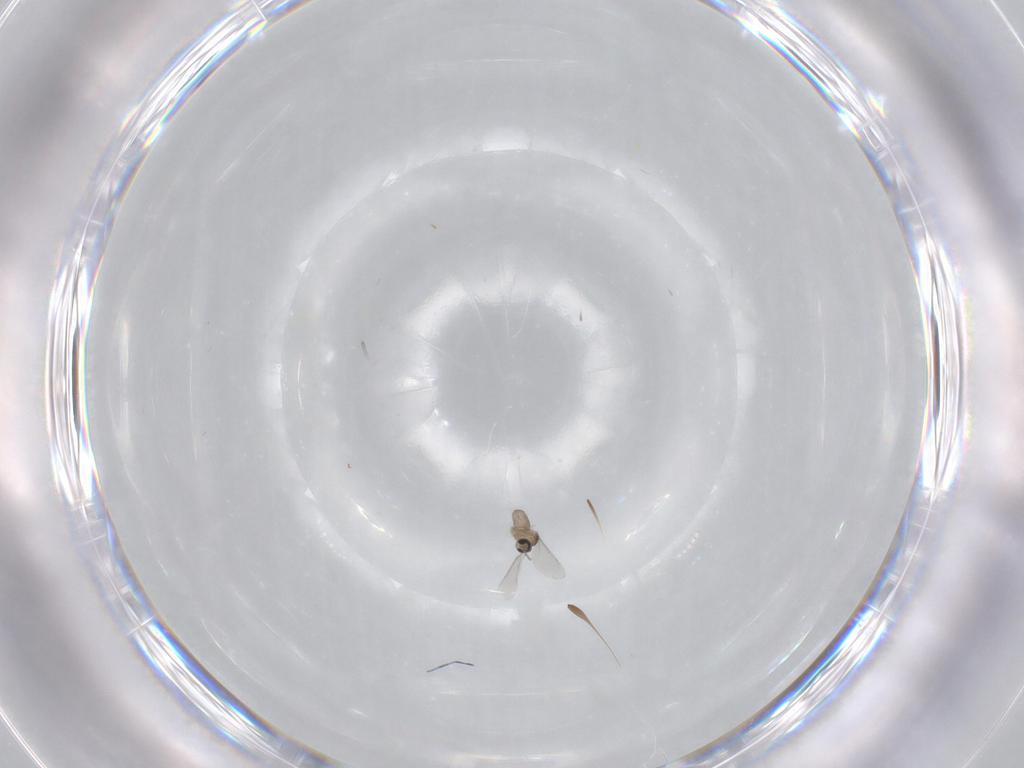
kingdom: Animalia
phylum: Arthropoda
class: Insecta
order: Diptera
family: Cecidomyiidae
